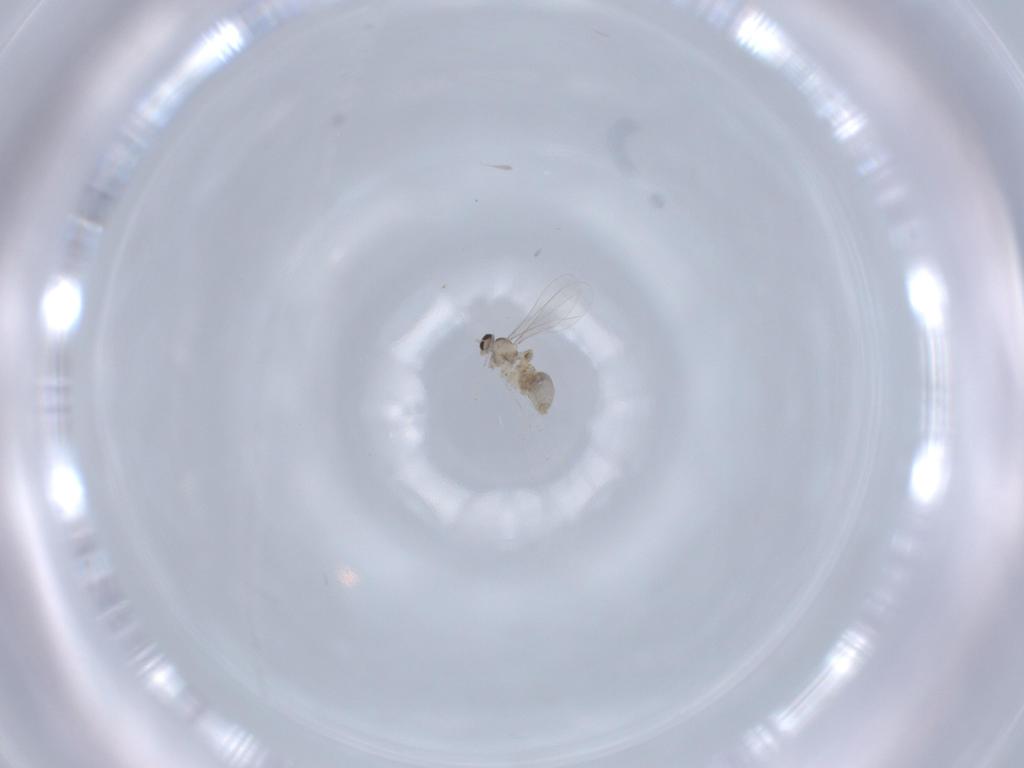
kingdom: Animalia
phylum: Arthropoda
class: Insecta
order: Diptera
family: Cecidomyiidae
